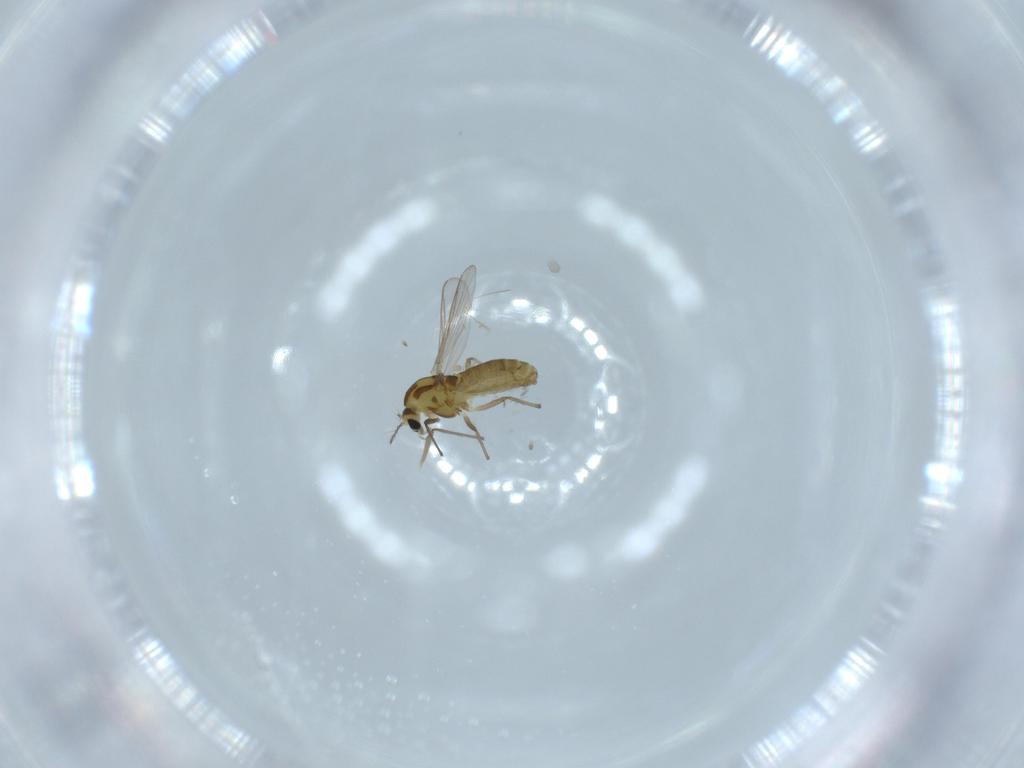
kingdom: Animalia
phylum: Arthropoda
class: Insecta
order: Diptera
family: Chironomidae
